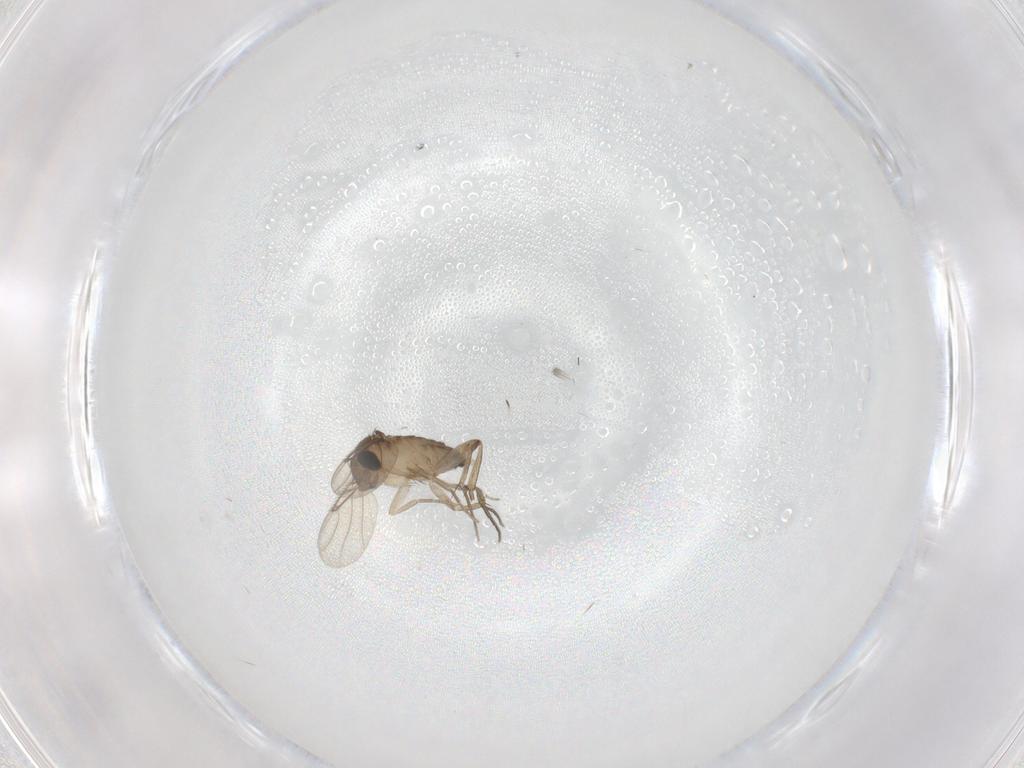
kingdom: Animalia
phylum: Arthropoda
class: Insecta
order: Diptera
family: Phoridae
